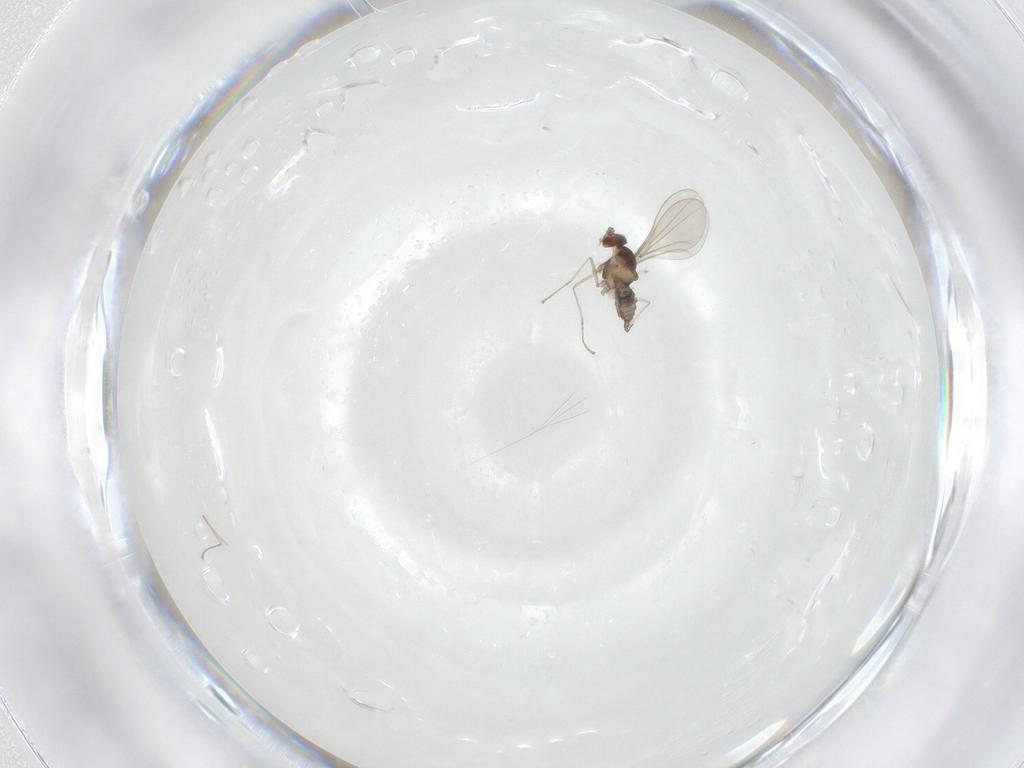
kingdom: Animalia
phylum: Arthropoda
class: Insecta
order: Diptera
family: Cecidomyiidae
